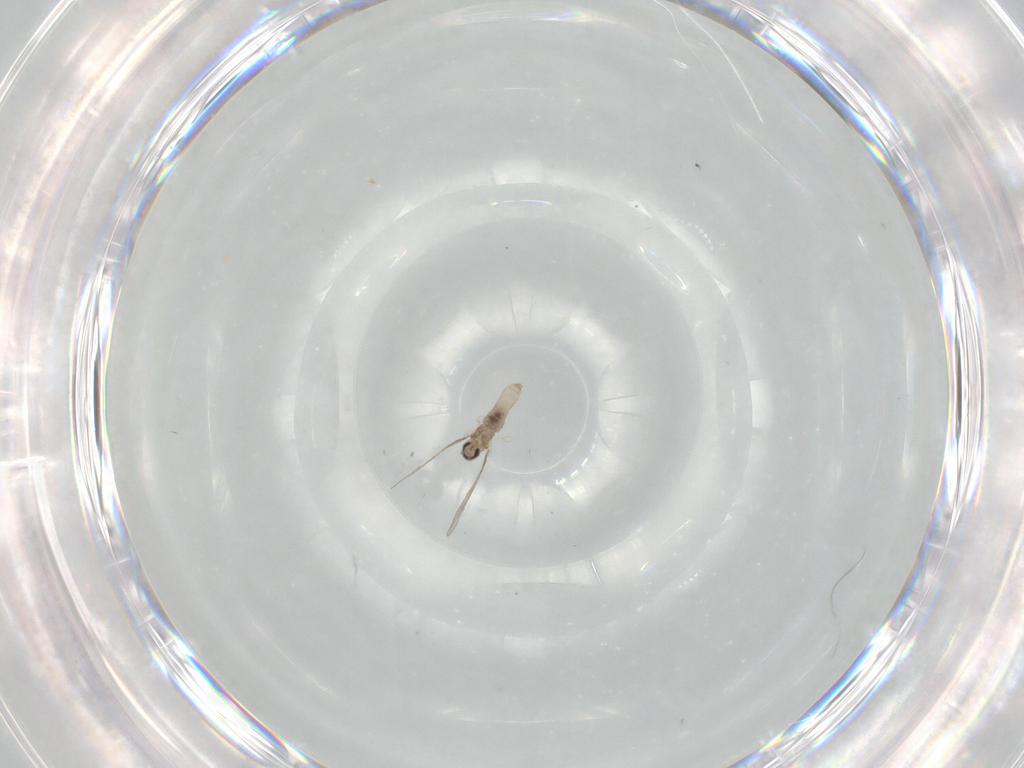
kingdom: Animalia
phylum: Arthropoda
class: Insecta
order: Diptera
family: Cecidomyiidae
